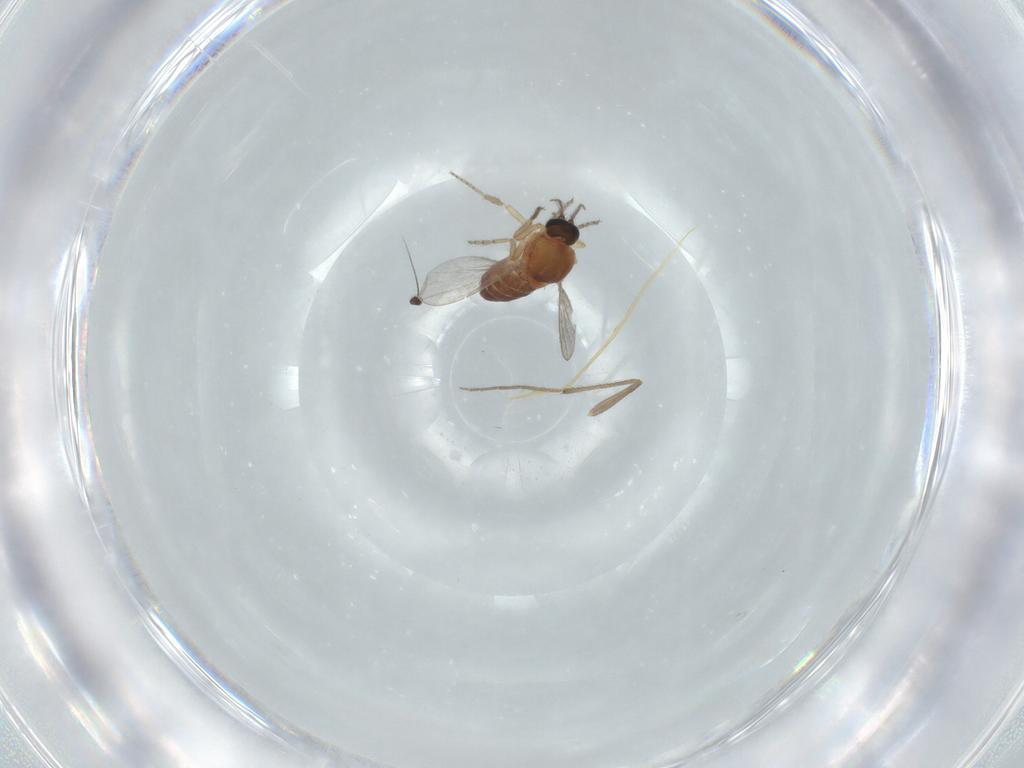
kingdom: Animalia
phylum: Arthropoda
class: Insecta
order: Diptera
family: Ceratopogonidae
